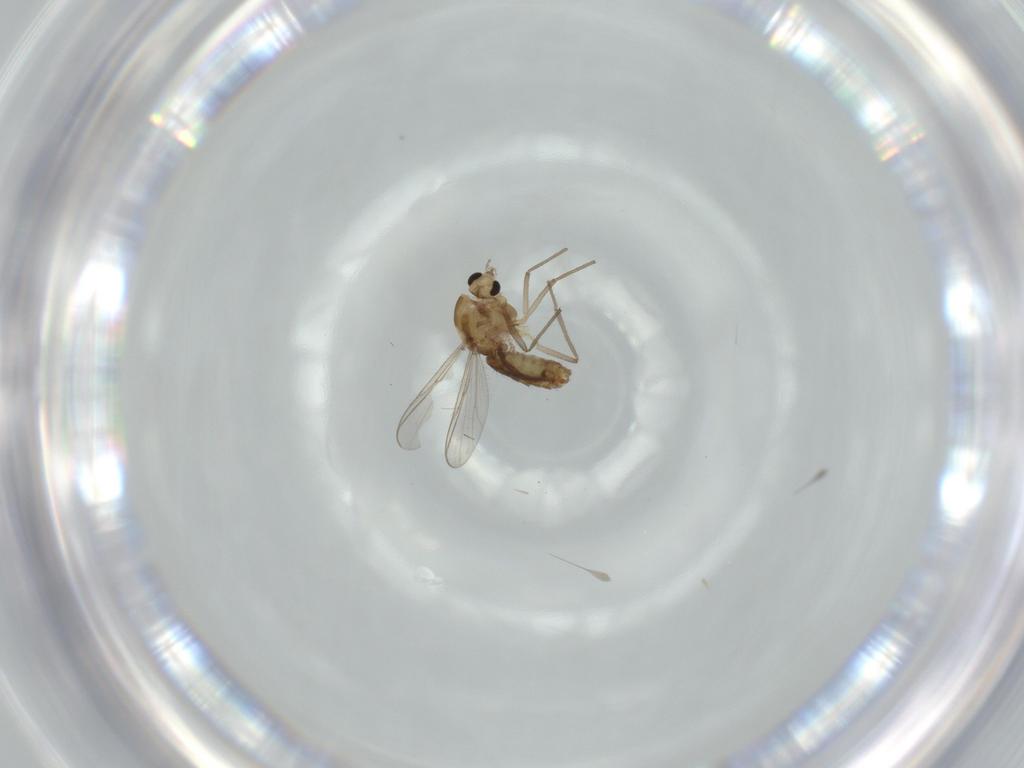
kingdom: Animalia
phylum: Arthropoda
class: Insecta
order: Diptera
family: Chironomidae
